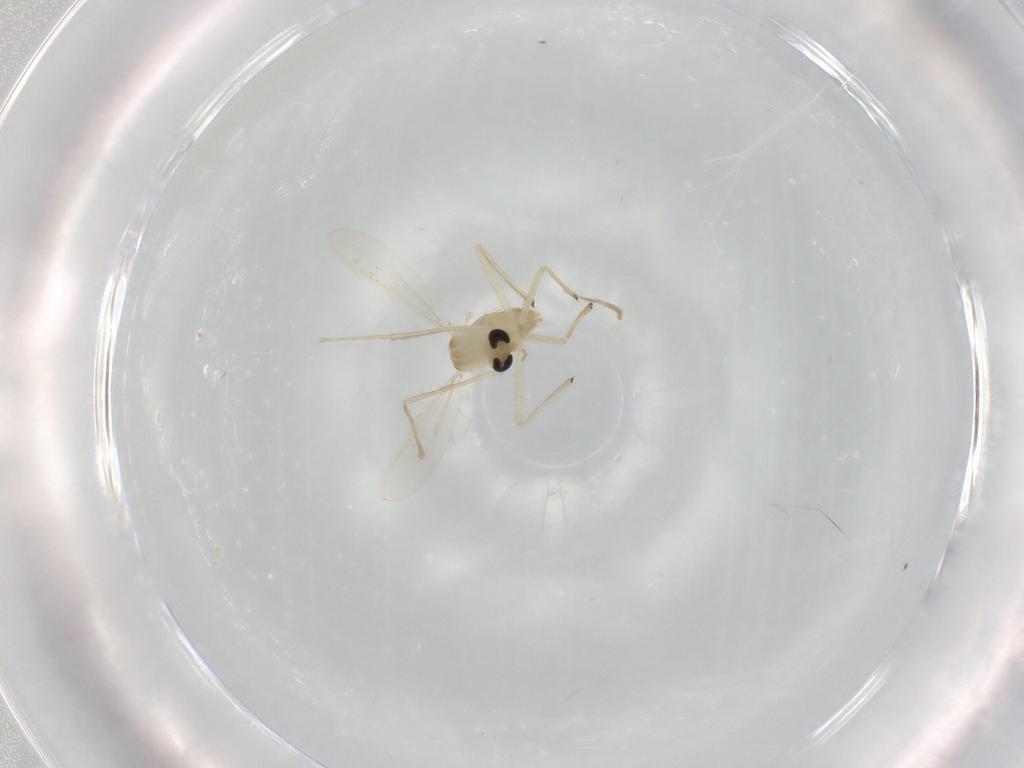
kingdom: Animalia
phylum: Arthropoda
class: Insecta
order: Diptera
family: Chironomidae
